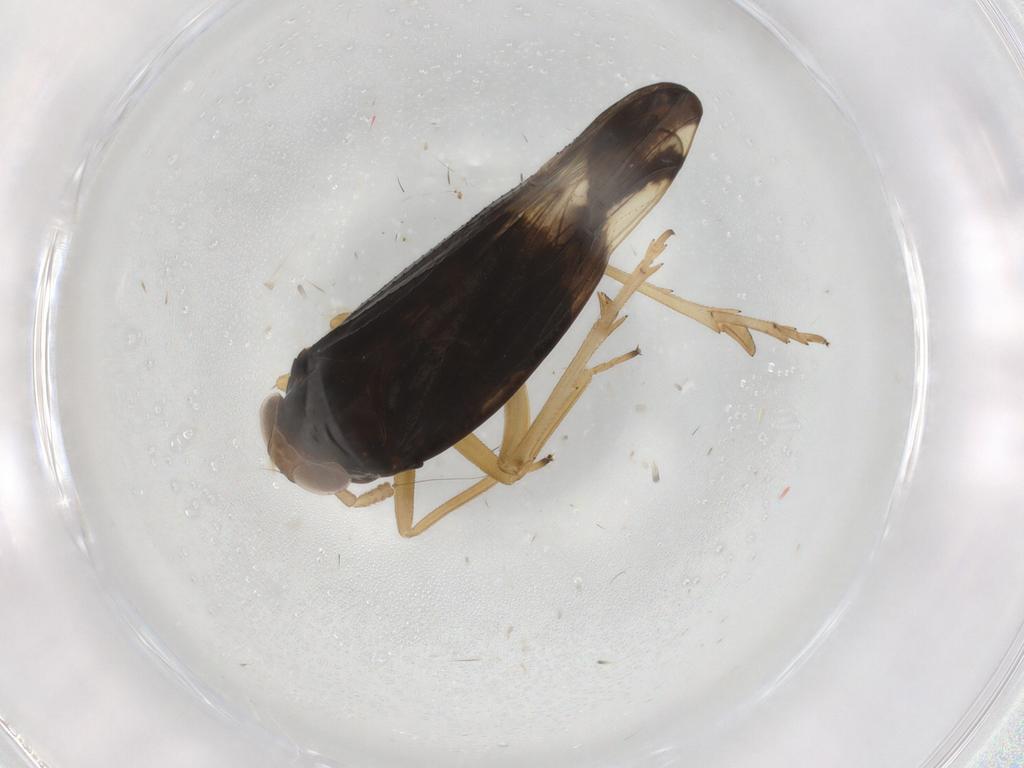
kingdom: Animalia
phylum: Arthropoda
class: Insecta
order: Hemiptera
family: Delphacidae
